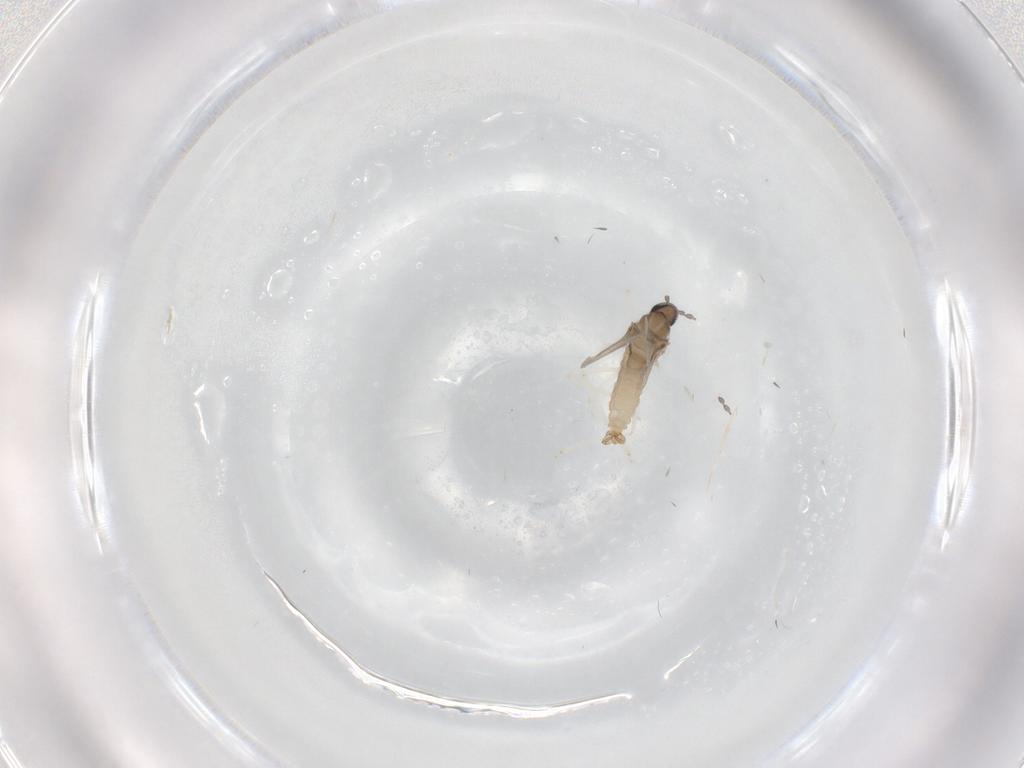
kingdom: Animalia
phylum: Arthropoda
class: Insecta
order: Diptera
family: Cecidomyiidae
